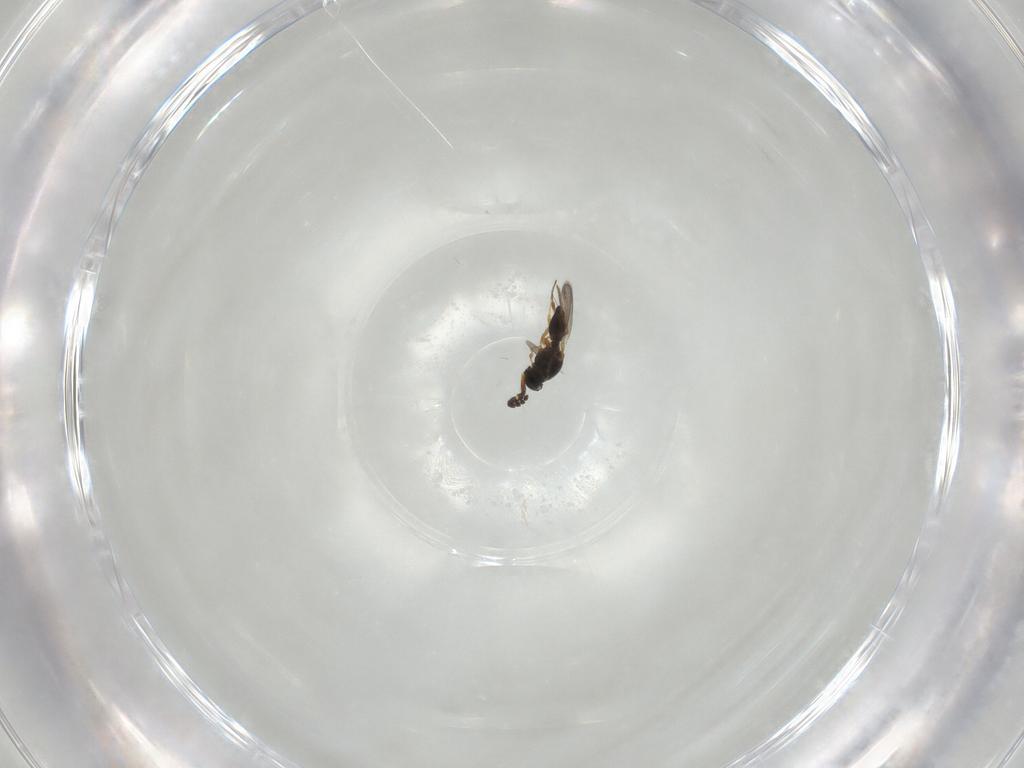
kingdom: Animalia
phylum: Arthropoda
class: Insecta
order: Hymenoptera
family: Platygastridae
